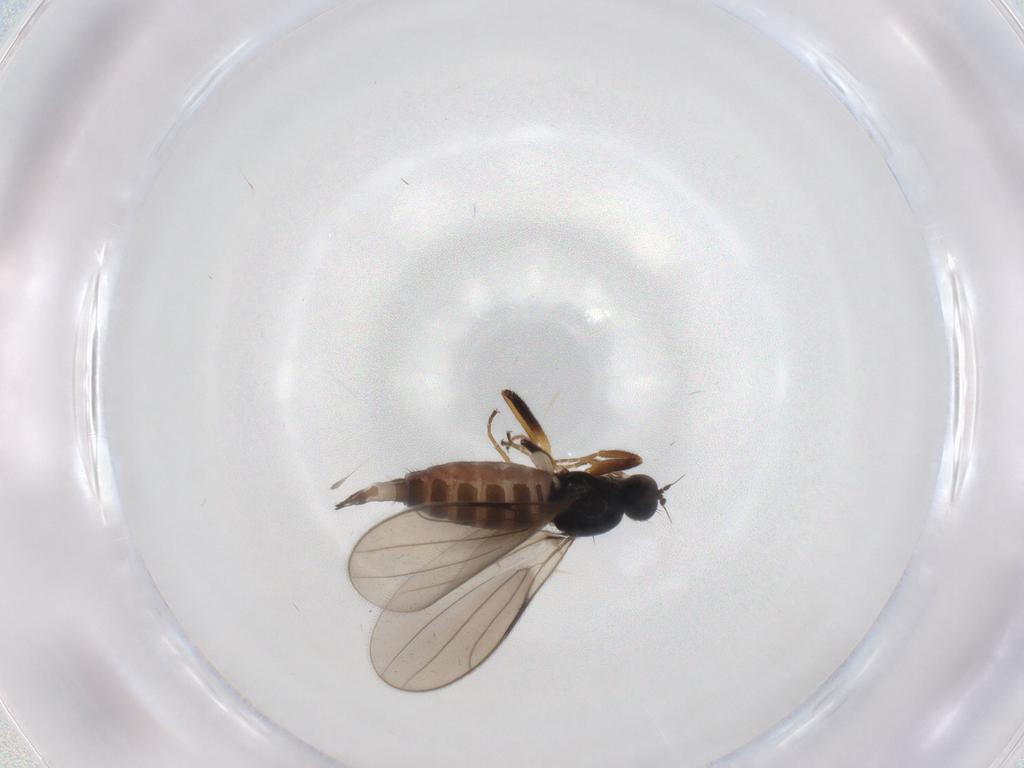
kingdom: Animalia
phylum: Arthropoda
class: Insecta
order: Diptera
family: Hybotidae
